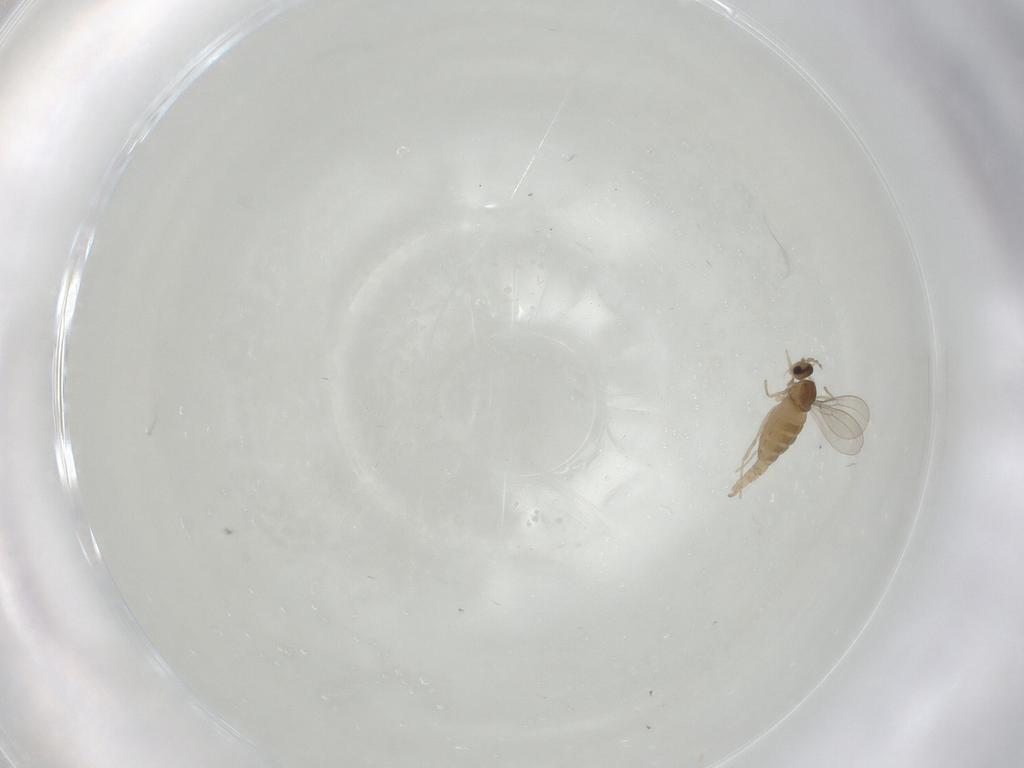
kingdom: Animalia
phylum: Arthropoda
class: Insecta
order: Diptera
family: Cecidomyiidae
